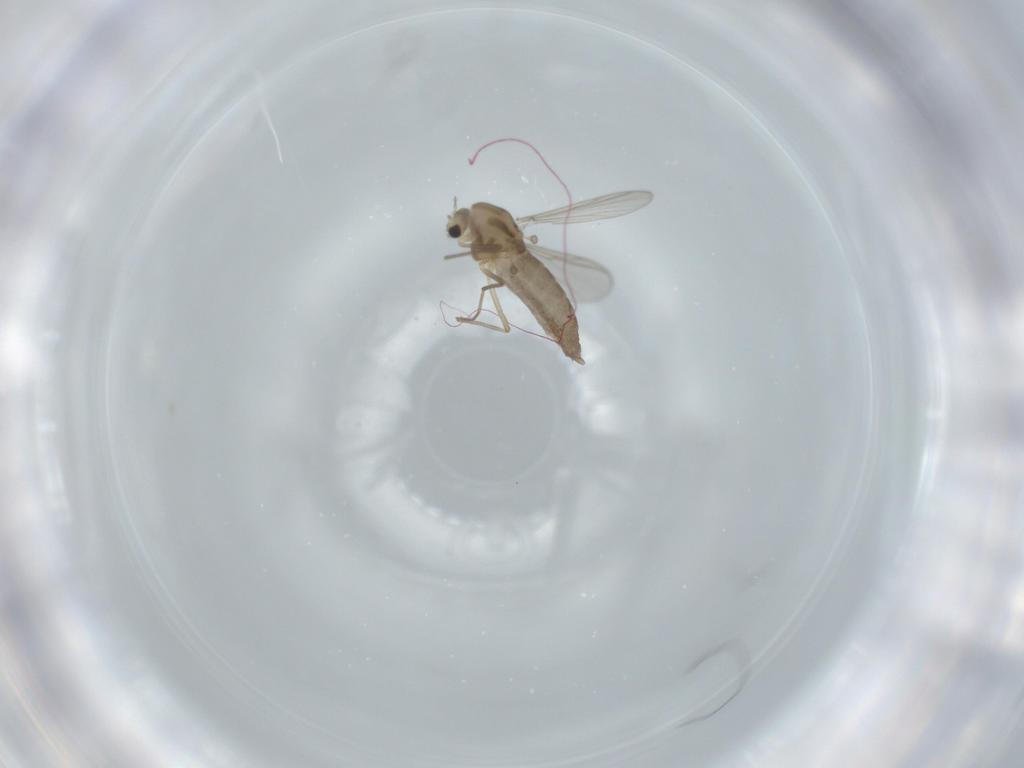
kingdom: Animalia
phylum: Arthropoda
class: Insecta
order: Diptera
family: Chironomidae
